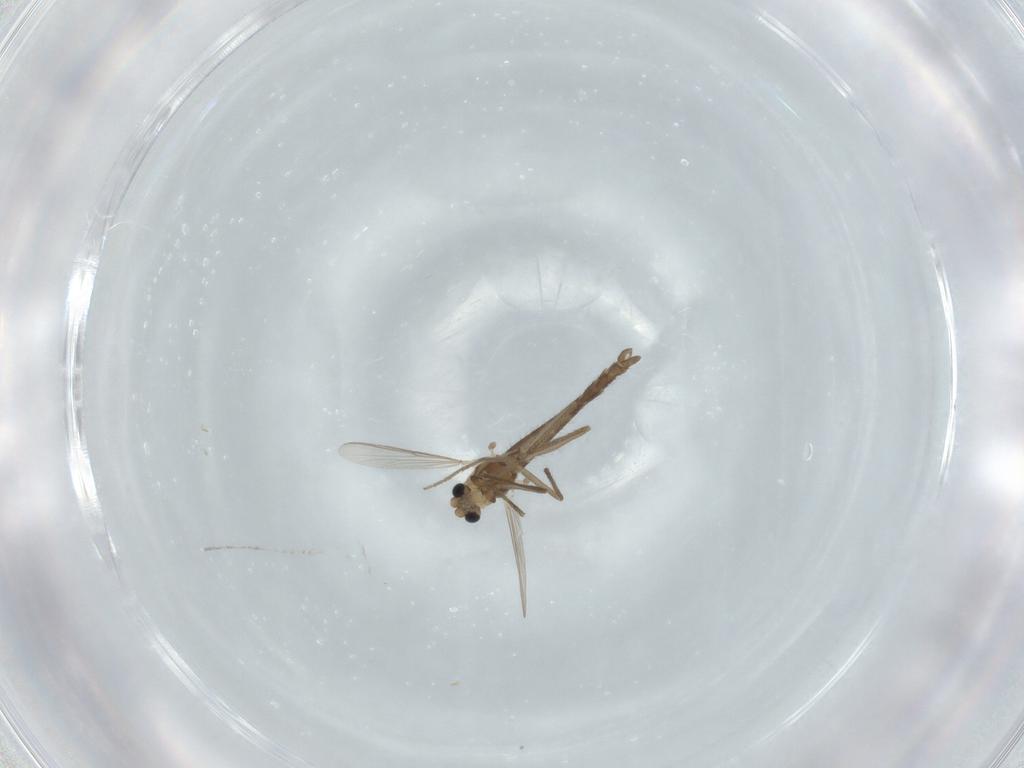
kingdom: Animalia
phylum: Arthropoda
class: Insecta
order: Diptera
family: Chironomidae
